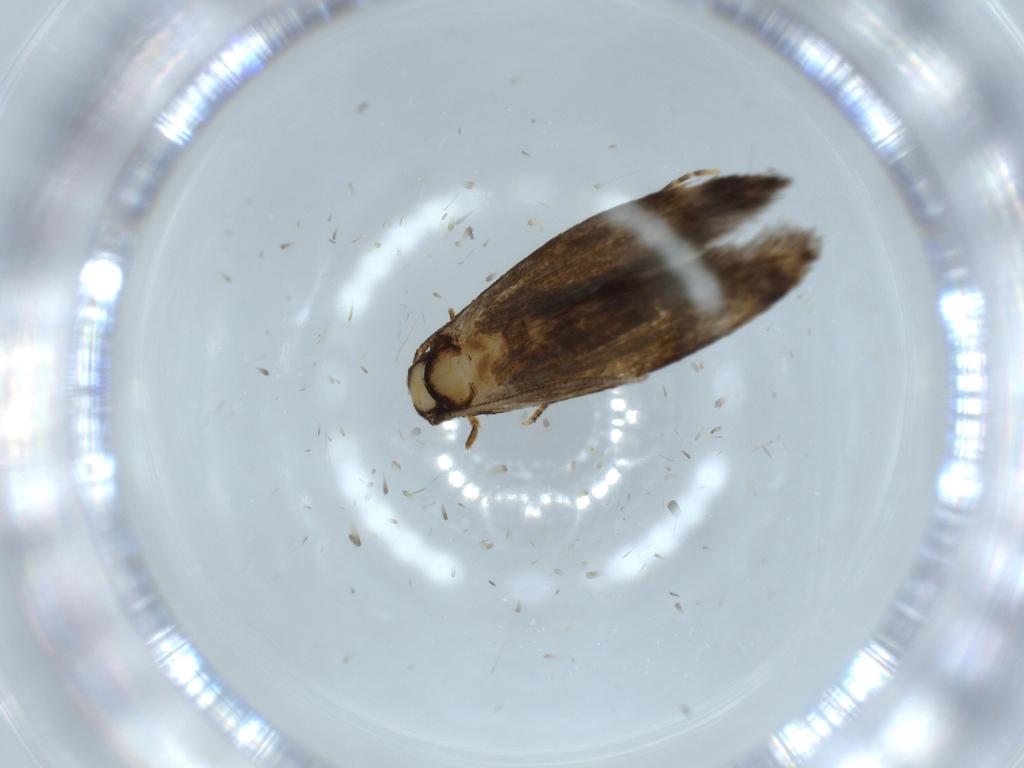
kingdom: Animalia
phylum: Arthropoda
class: Insecta
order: Lepidoptera
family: Tineidae
